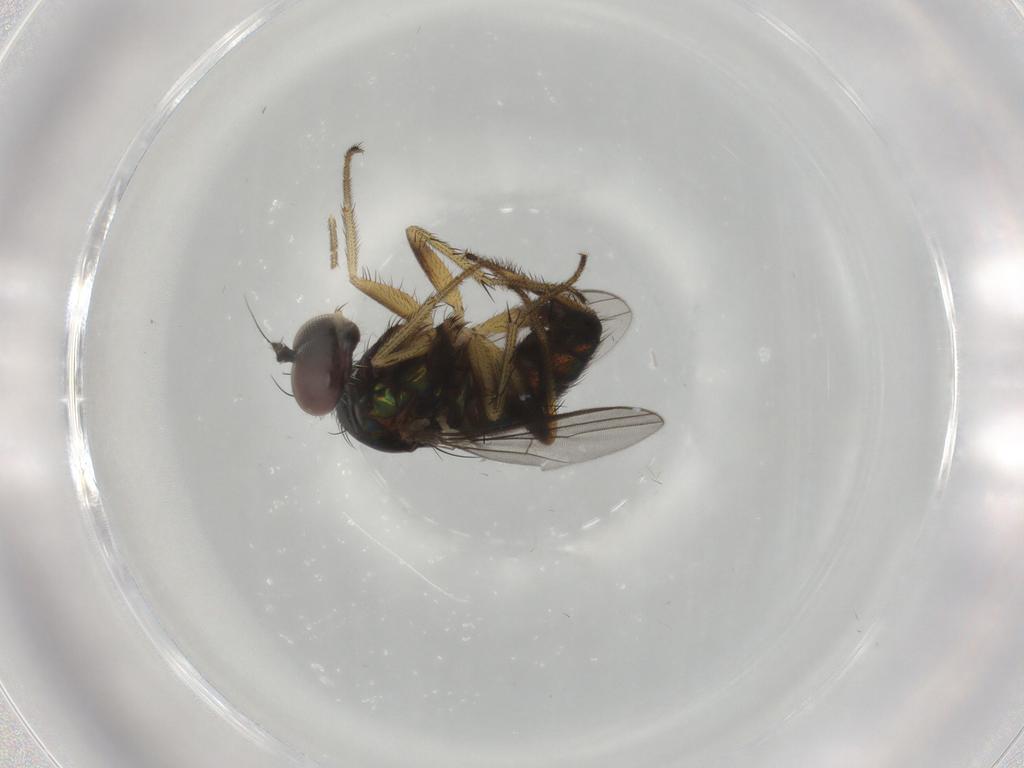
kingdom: Animalia
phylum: Arthropoda
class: Insecta
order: Diptera
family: Dolichopodidae
